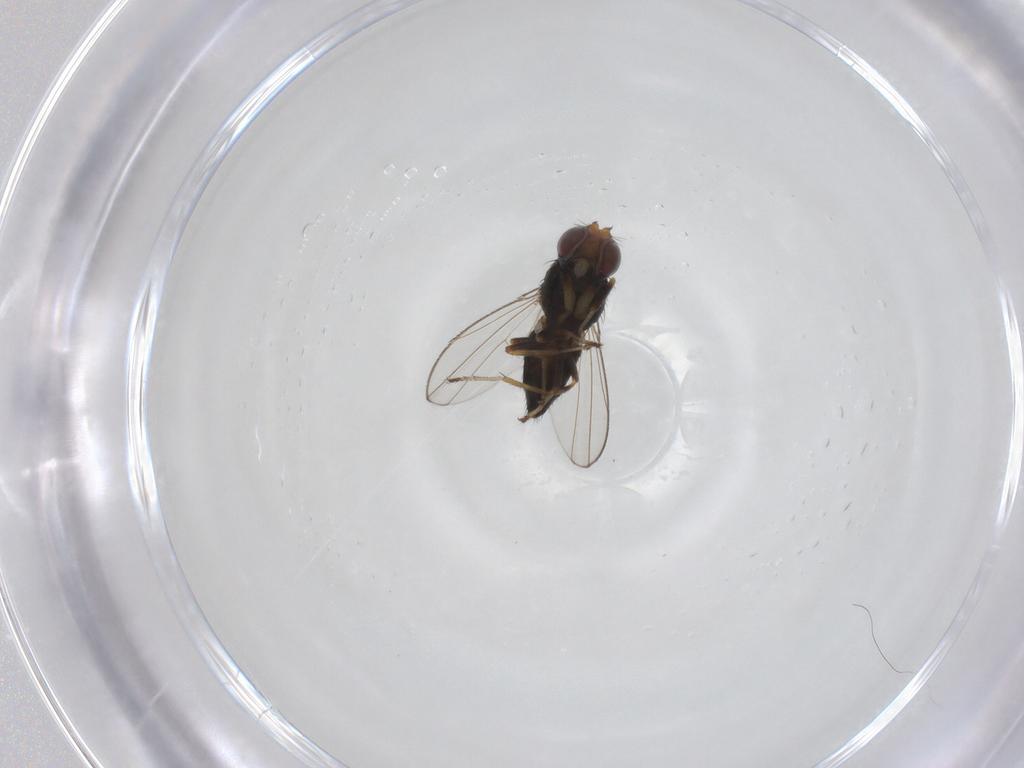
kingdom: Animalia
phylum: Arthropoda
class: Insecta
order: Diptera
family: Ephydridae
